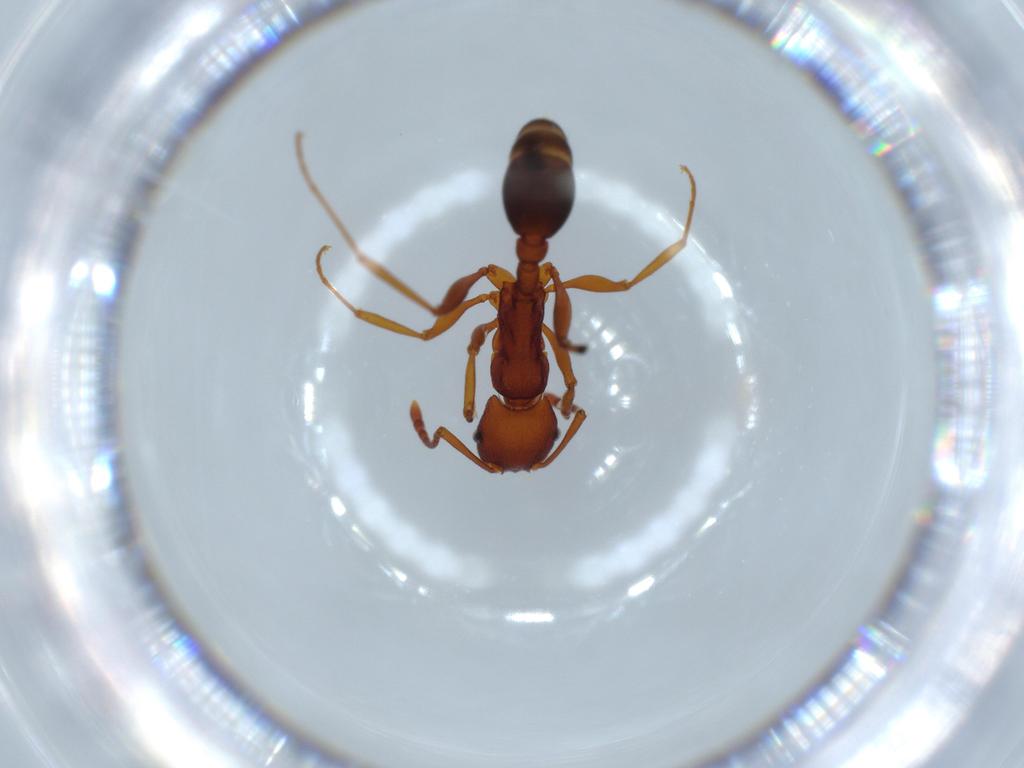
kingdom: Animalia
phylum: Arthropoda
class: Insecta
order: Hymenoptera
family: Formicidae
